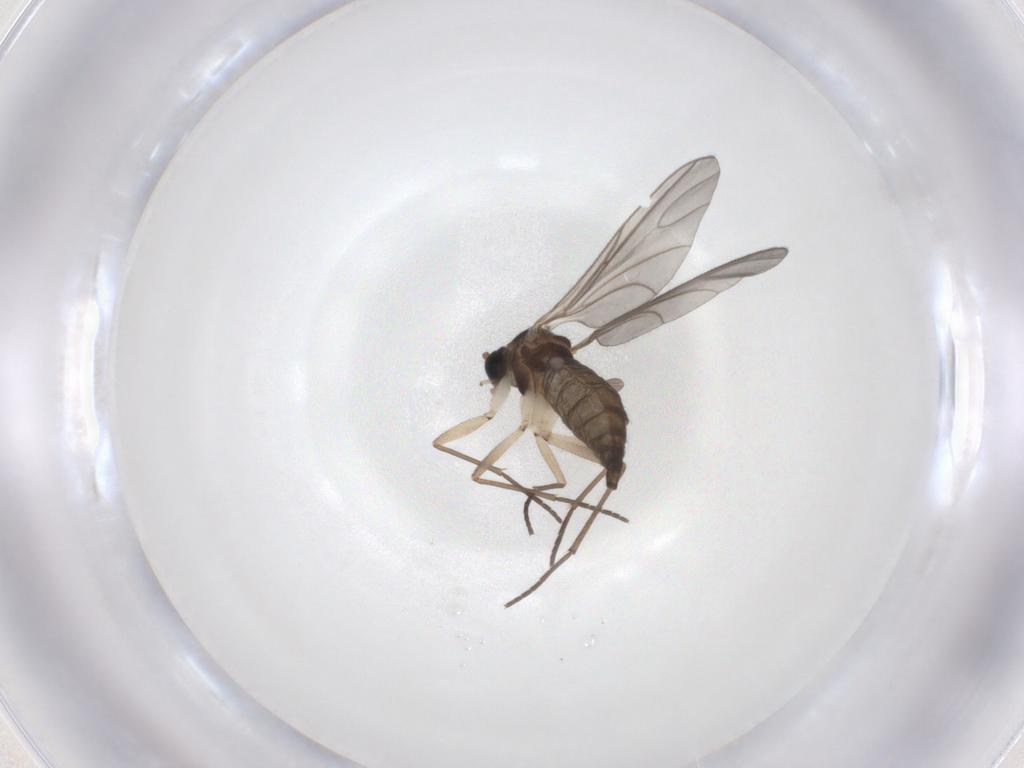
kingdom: Animalia
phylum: Arthropoda
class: Insecta
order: Diptera
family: Sciaridae
